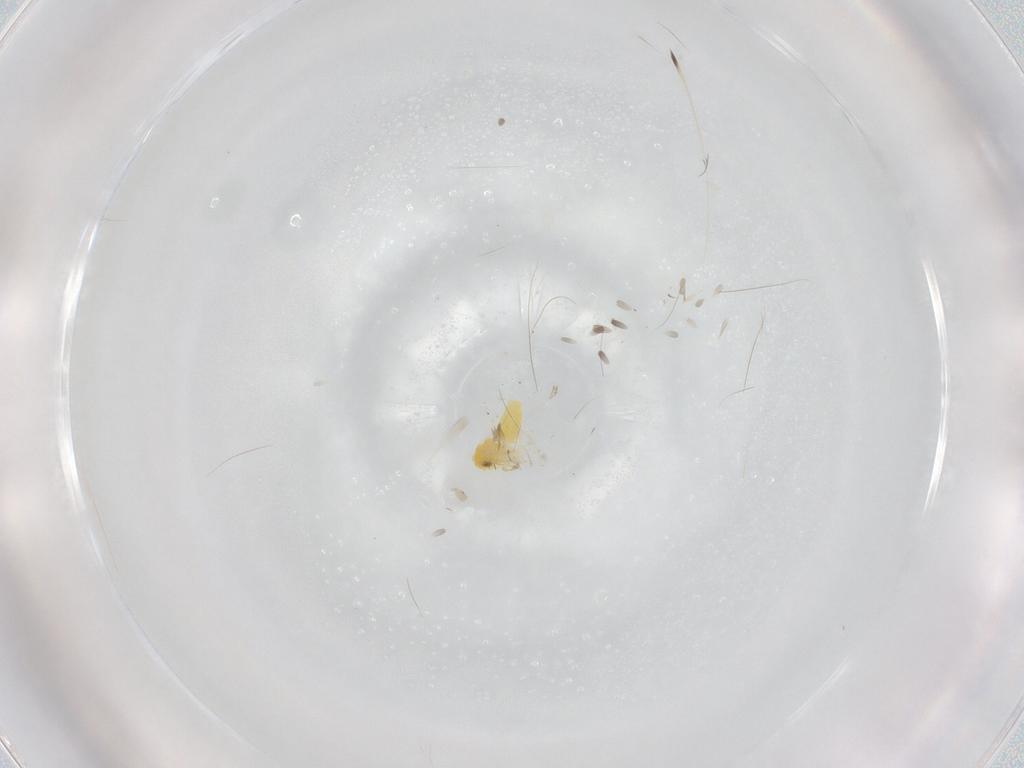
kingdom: Animalia
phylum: Arthropoda
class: Insecta
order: Hemiptera
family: Aleyrodidae
